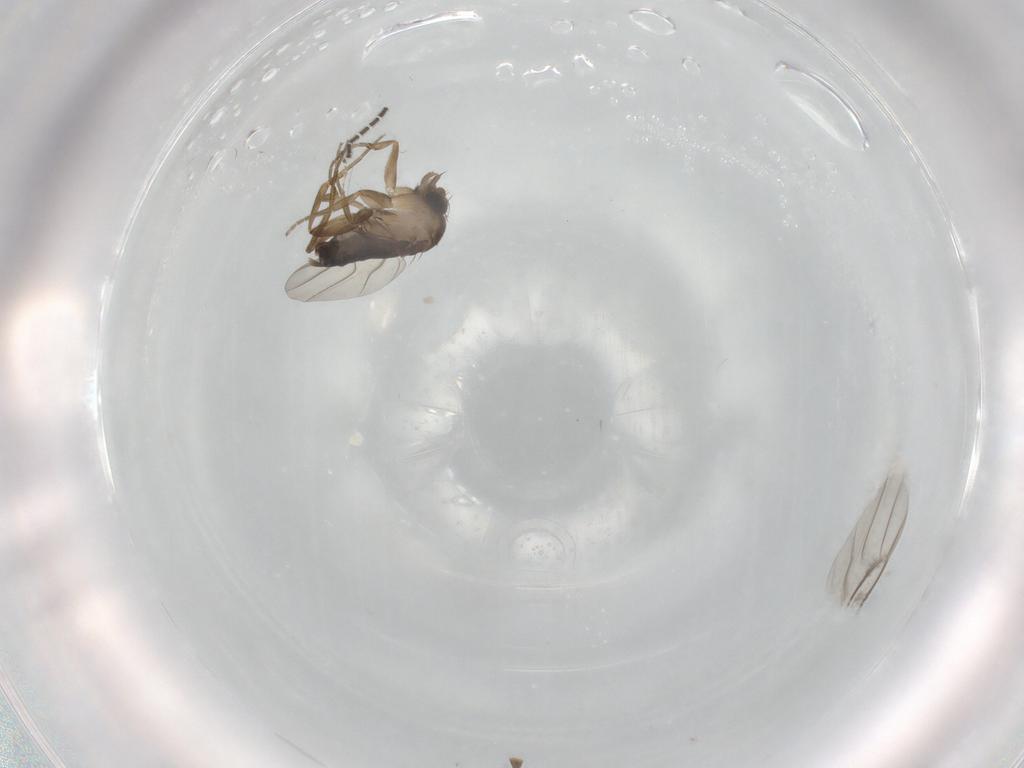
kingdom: Animalia
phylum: Arthropoda
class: Insecta
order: Diptera
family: Phoridae
